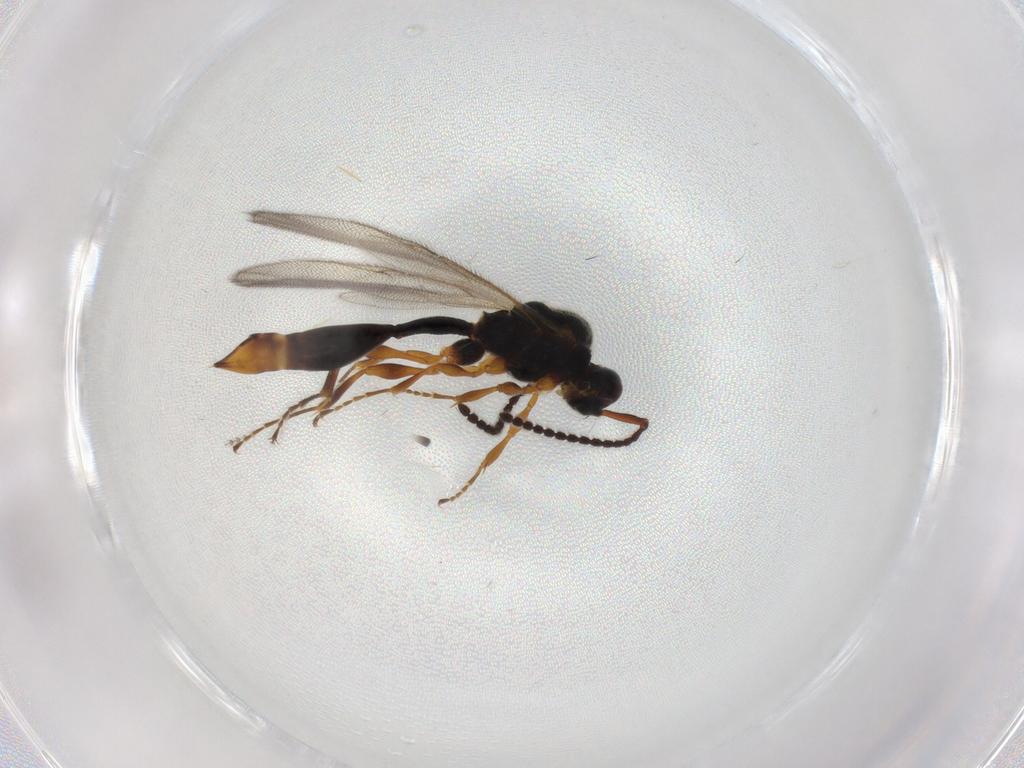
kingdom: Animalia
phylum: Arthropoda
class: Insecta
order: Hymenoptera
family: Diapriidae
